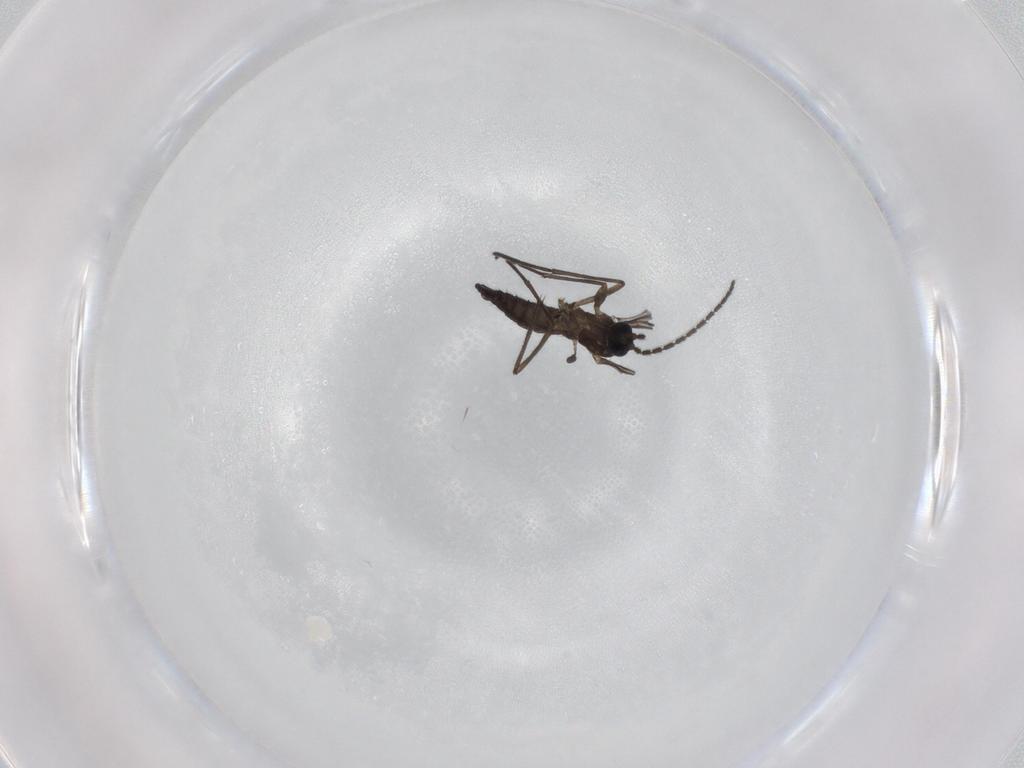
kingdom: Animalia
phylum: Arthropoda
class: Insecta
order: Diptera
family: Sciaridae
